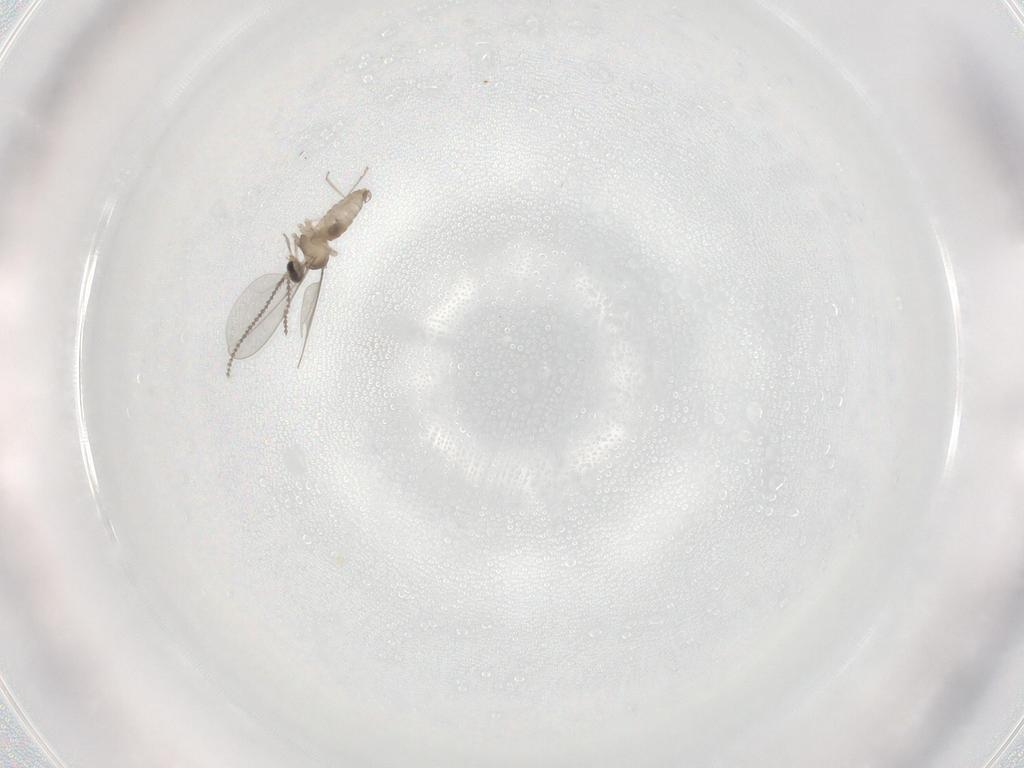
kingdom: Animalia
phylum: Arthropoda
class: Insecta
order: Diptera
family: Cecidomyiidae
